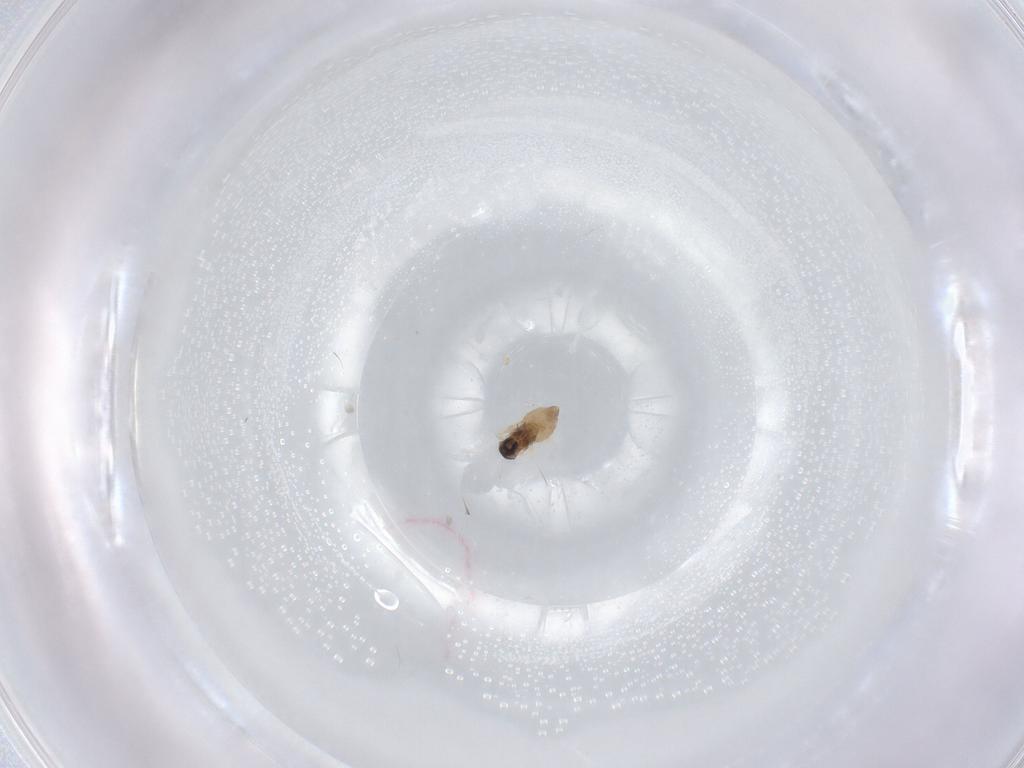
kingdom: Animalia
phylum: Arthropoda
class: Insecta
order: Diptera
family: Cecidomyiidae
